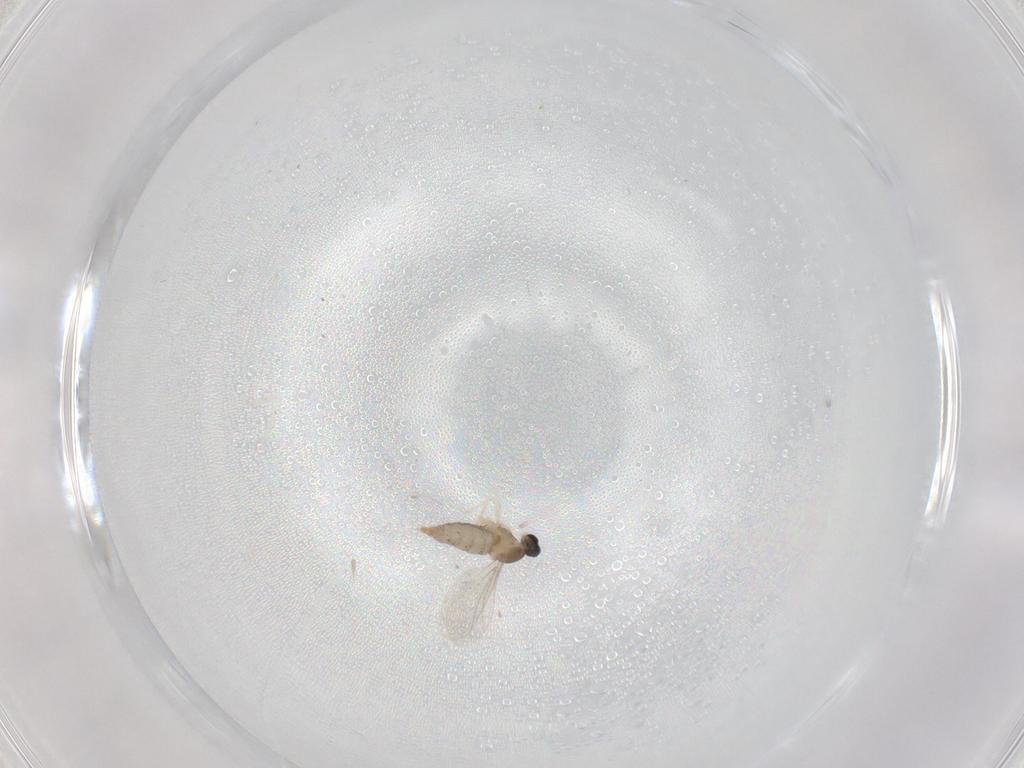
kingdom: Animalia
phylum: Arthropoda
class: Insecta
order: Diptera
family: Cecidomyiidae
